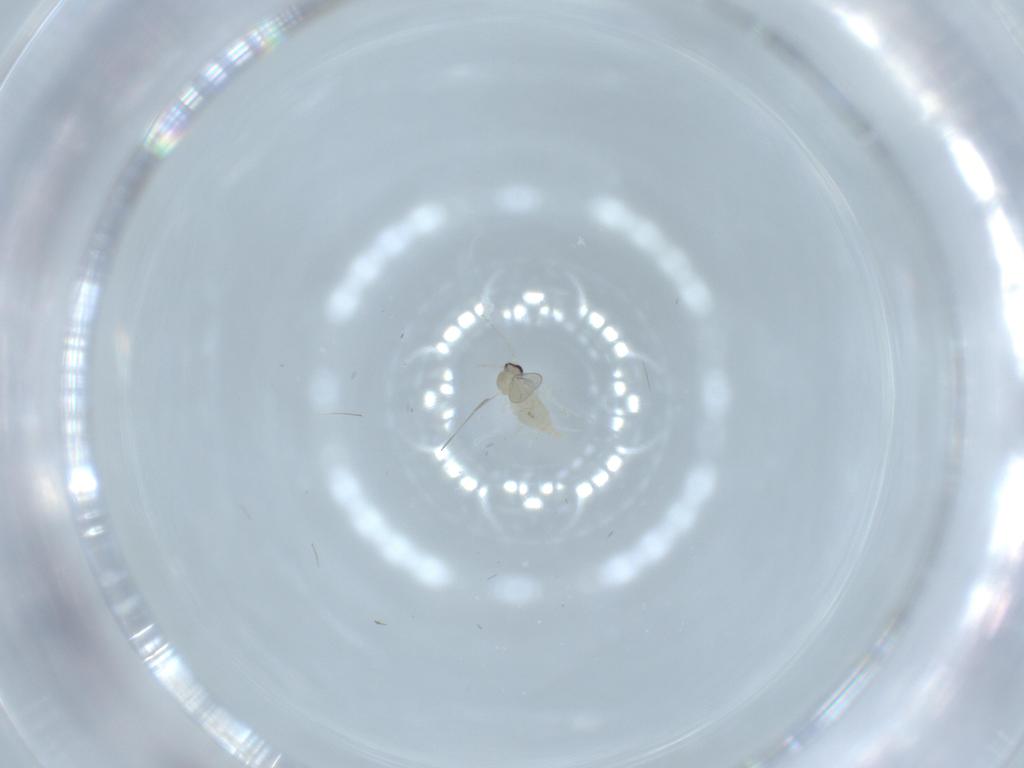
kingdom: Animalia
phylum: Arthropoda
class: Insecta
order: Diptera
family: Cecidomyiidae
